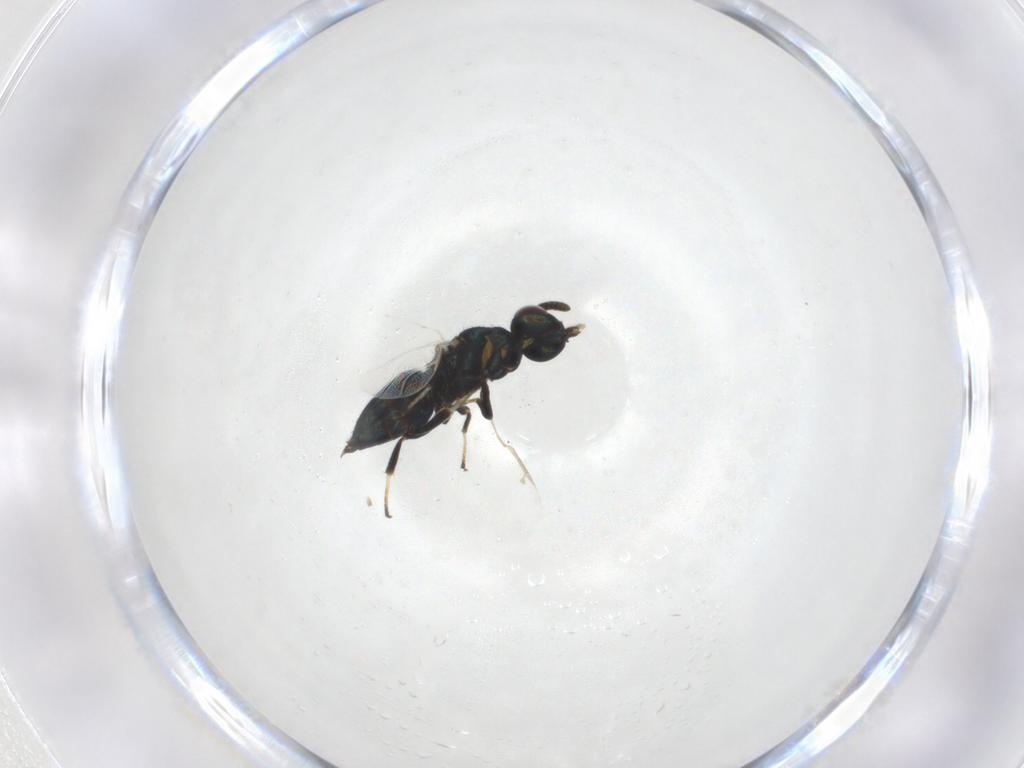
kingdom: Animalia
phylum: Arthropoda
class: Insecta
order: Hymenoptera
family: Pteromalidae
